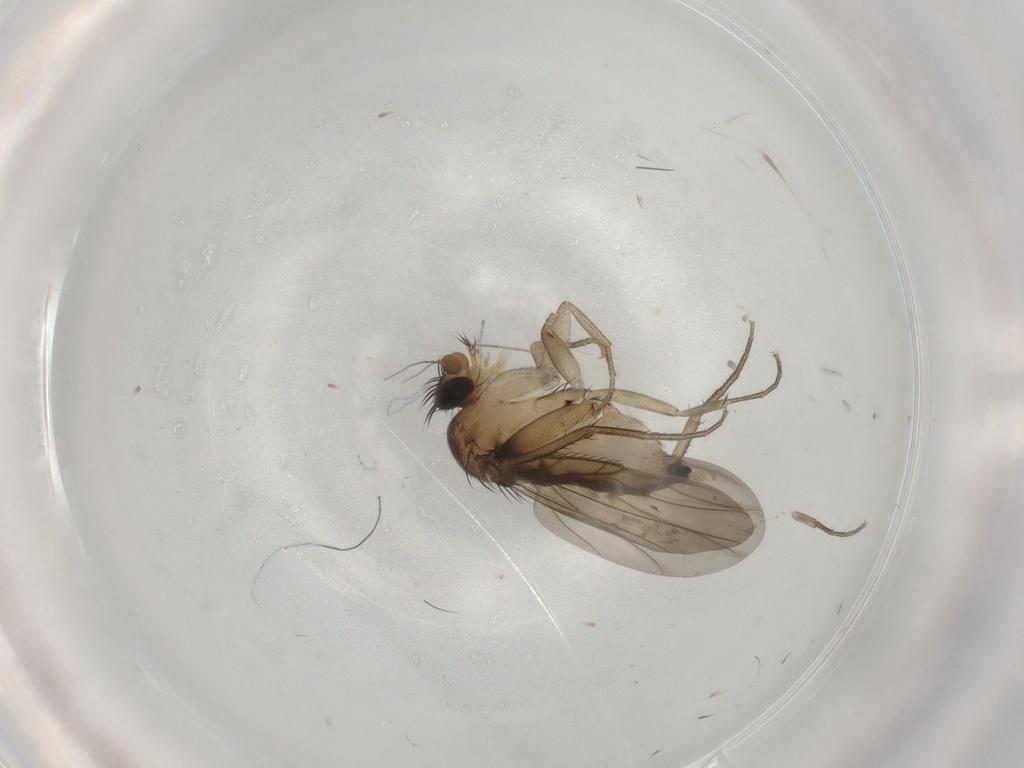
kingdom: Animalia
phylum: Arthropoda
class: Insecta
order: Diptera
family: Phoridae
